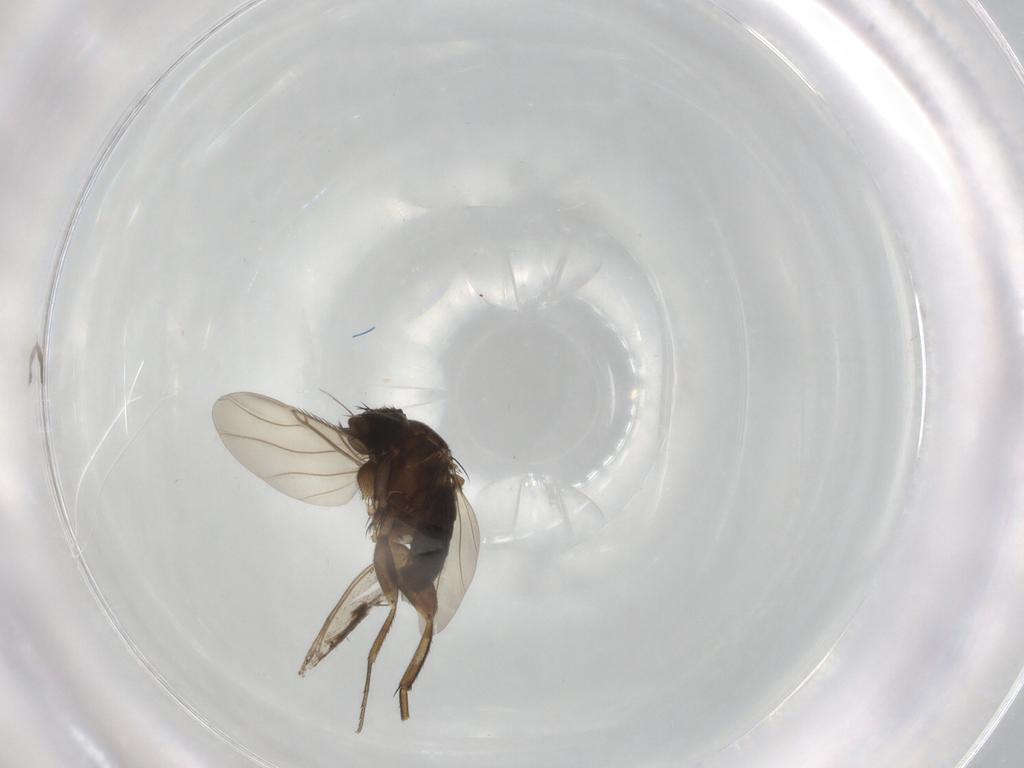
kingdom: Animalia
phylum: Arthropoda
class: Insecta
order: Diptera
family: Phoridae
